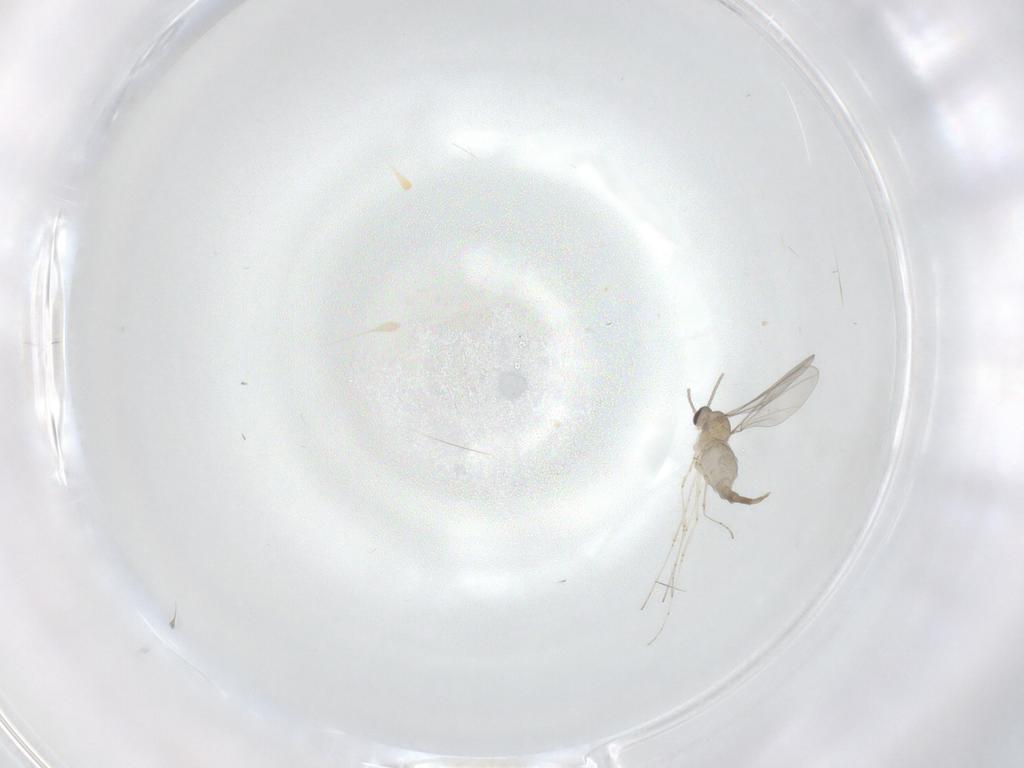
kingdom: Animalia
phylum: Arthropoda
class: Insecta
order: Diptera
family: Cecidomyiidae
